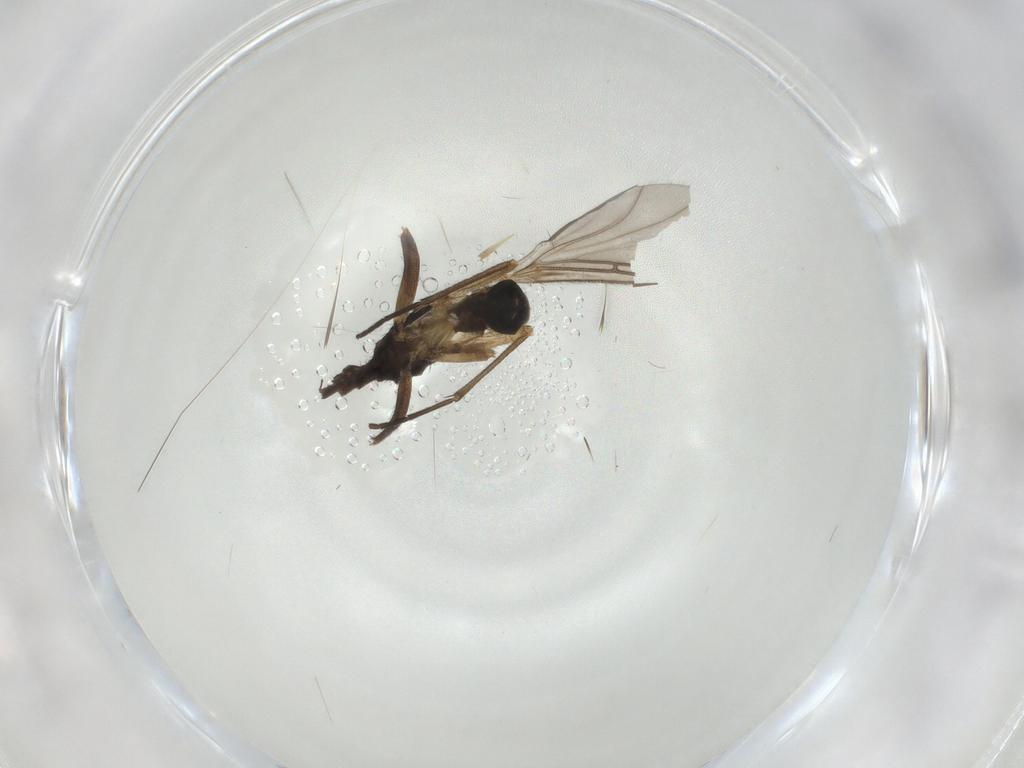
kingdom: Animalia
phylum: Arthropoda
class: Insecta
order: Diptera
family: Sciaridae
